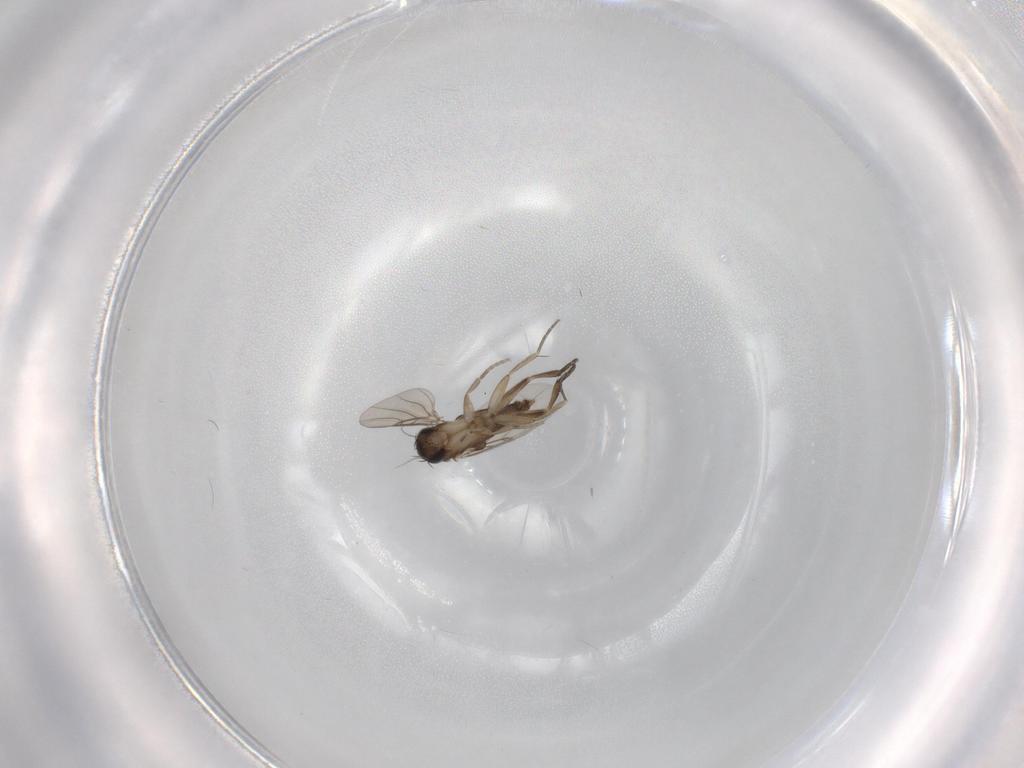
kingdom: Animalia
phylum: Arthropoda
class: Insecta
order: Diptera
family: Phoridae
